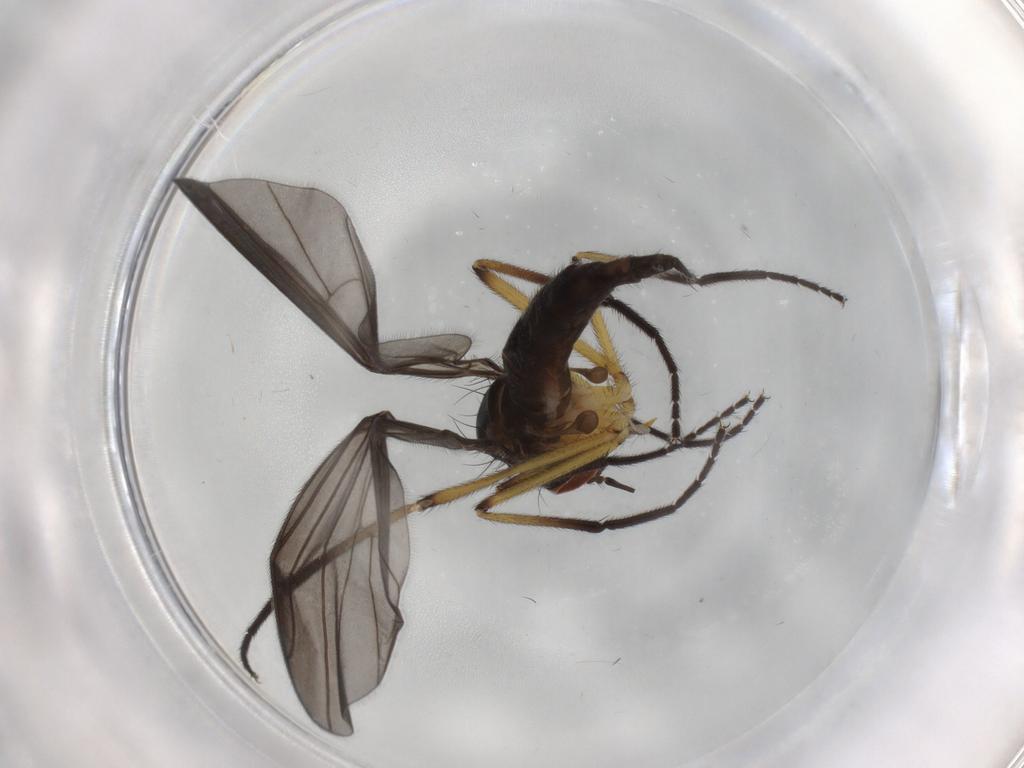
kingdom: Animalia
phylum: Arthropoda
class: Insecta
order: Diptera
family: Empididae
